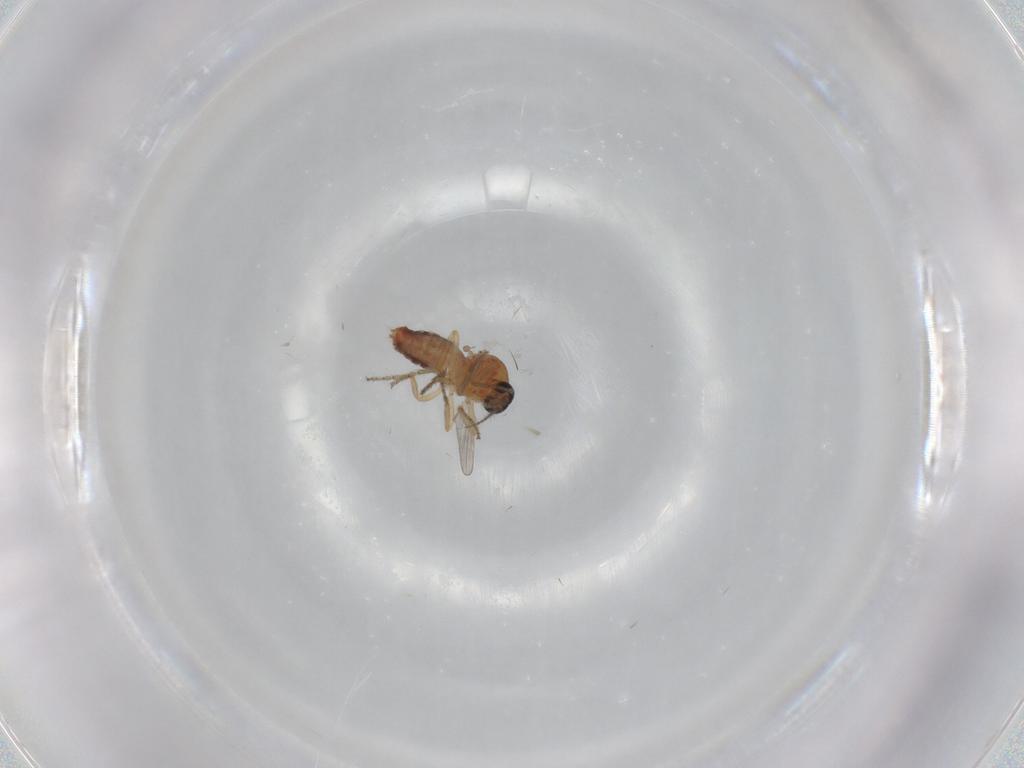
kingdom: Animalia
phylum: Arthropoda
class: Insecta
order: Diptera
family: Ceratopogonidae
